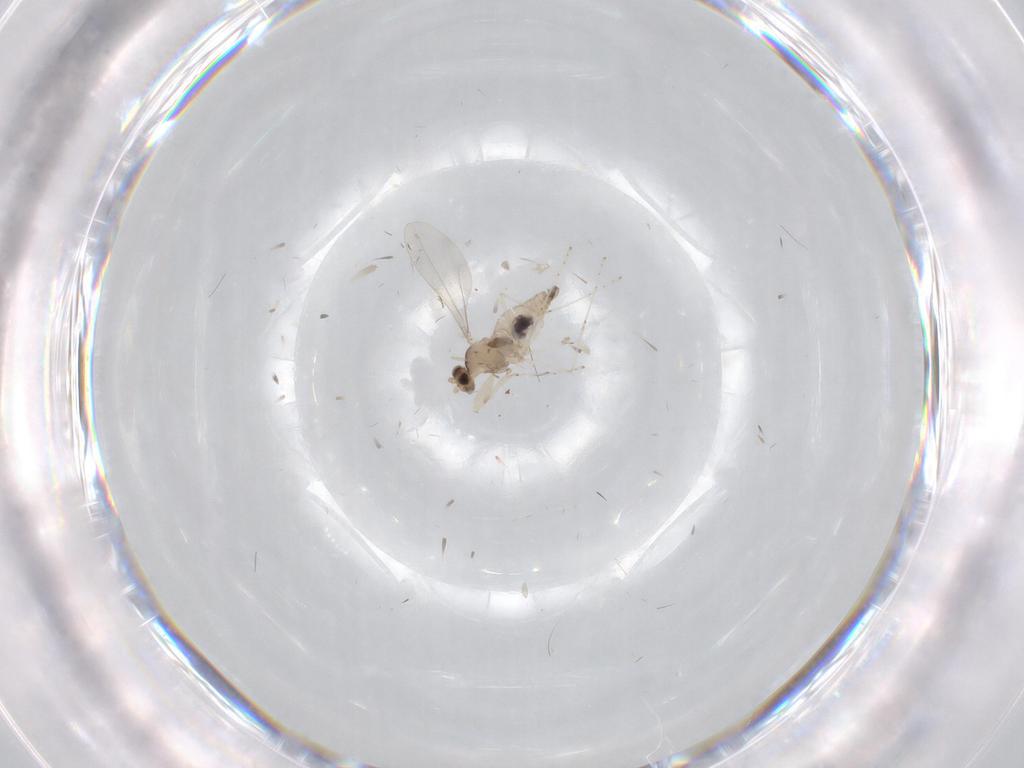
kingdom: Animalia
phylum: Arthropoda
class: Insecta
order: Diptera
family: Cecidomyiidae
